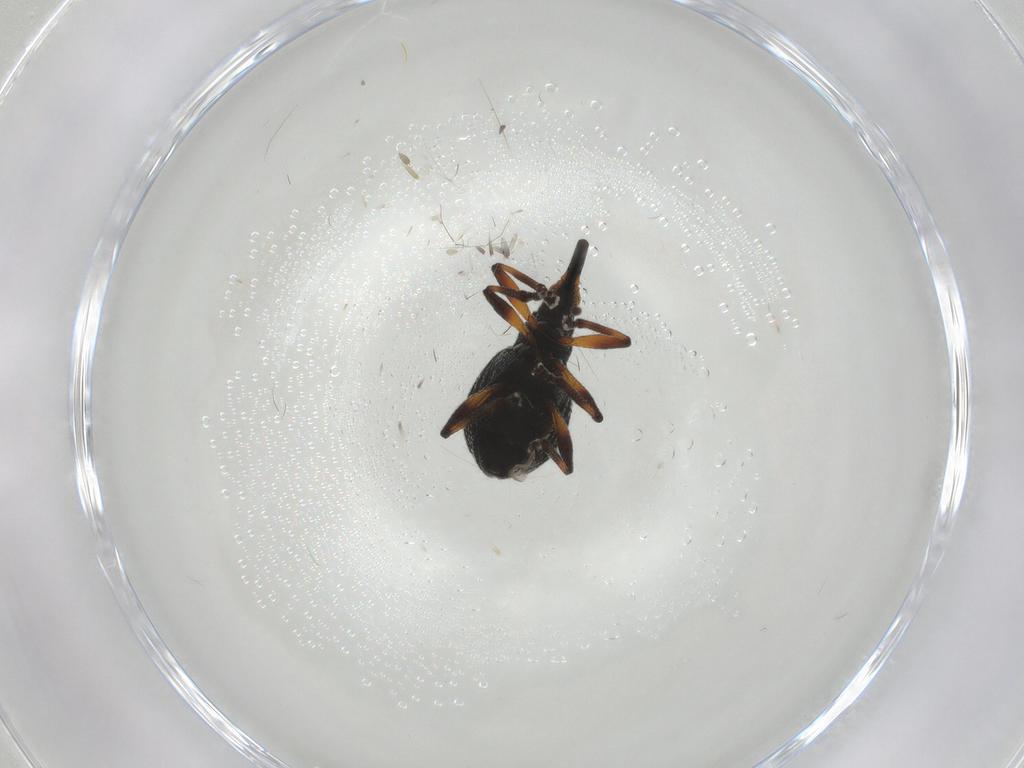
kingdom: Animalia
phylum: Arthropoda
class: Insecta
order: Coleoptera
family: Brentidae
